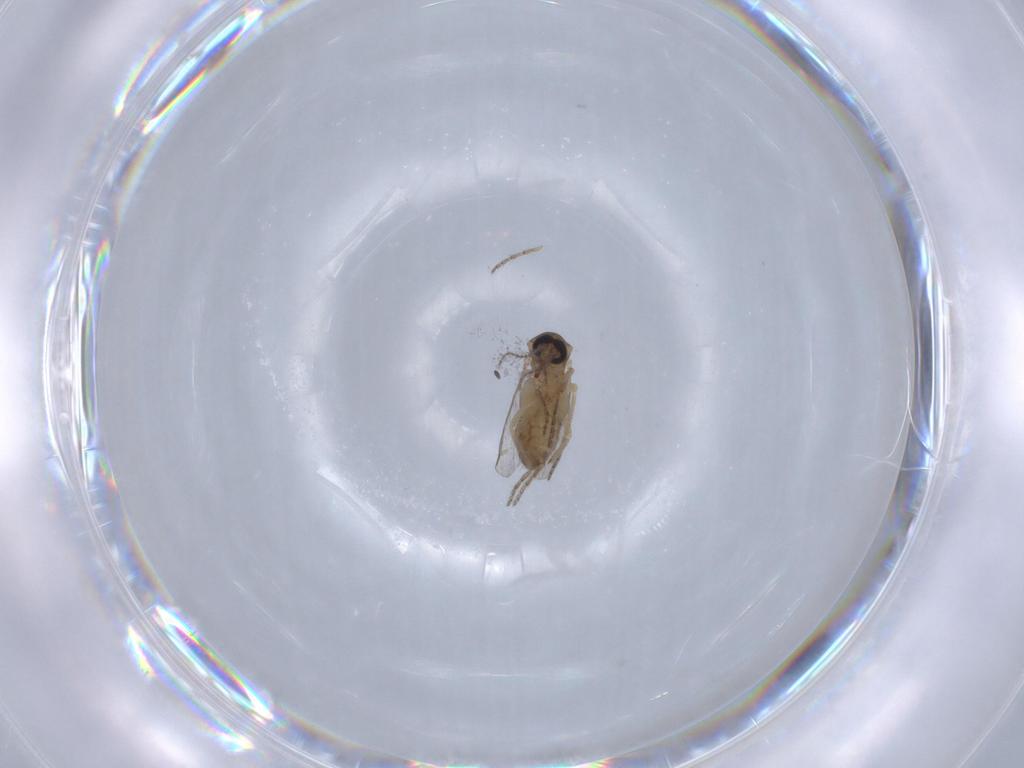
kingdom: Animalia
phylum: Arthropoda
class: Insecta
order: Diptera
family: Ceratopogonidae
